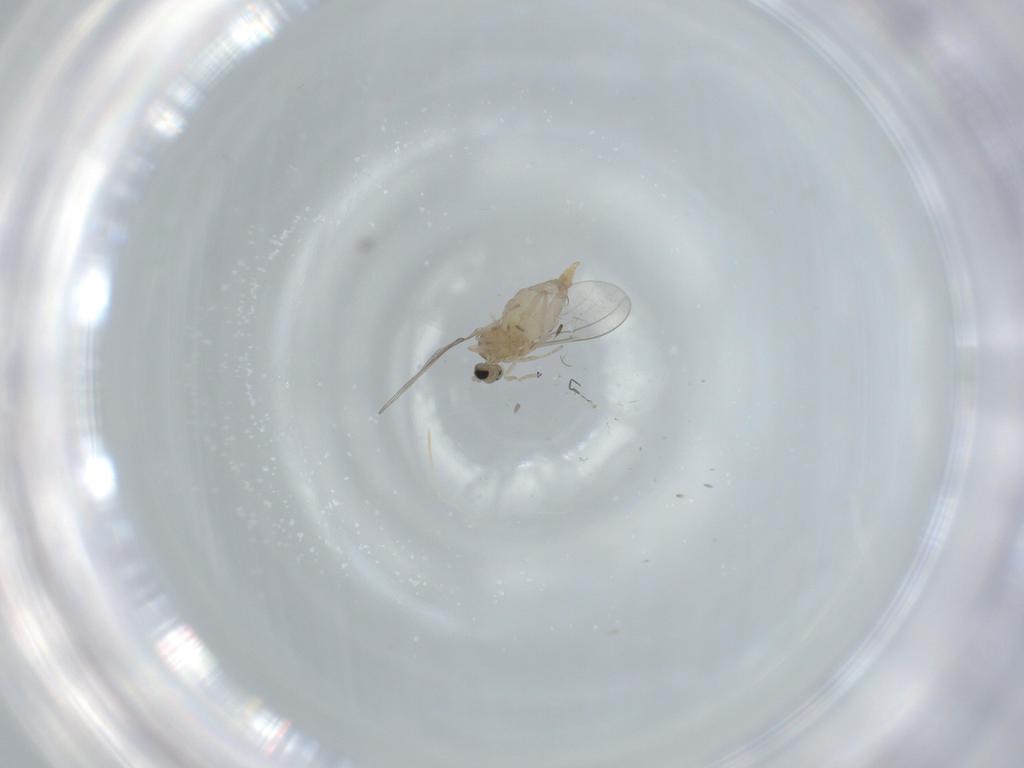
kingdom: Animalia
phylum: Arthropoda
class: Insecta
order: Diptera
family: Cecidomyiidae
